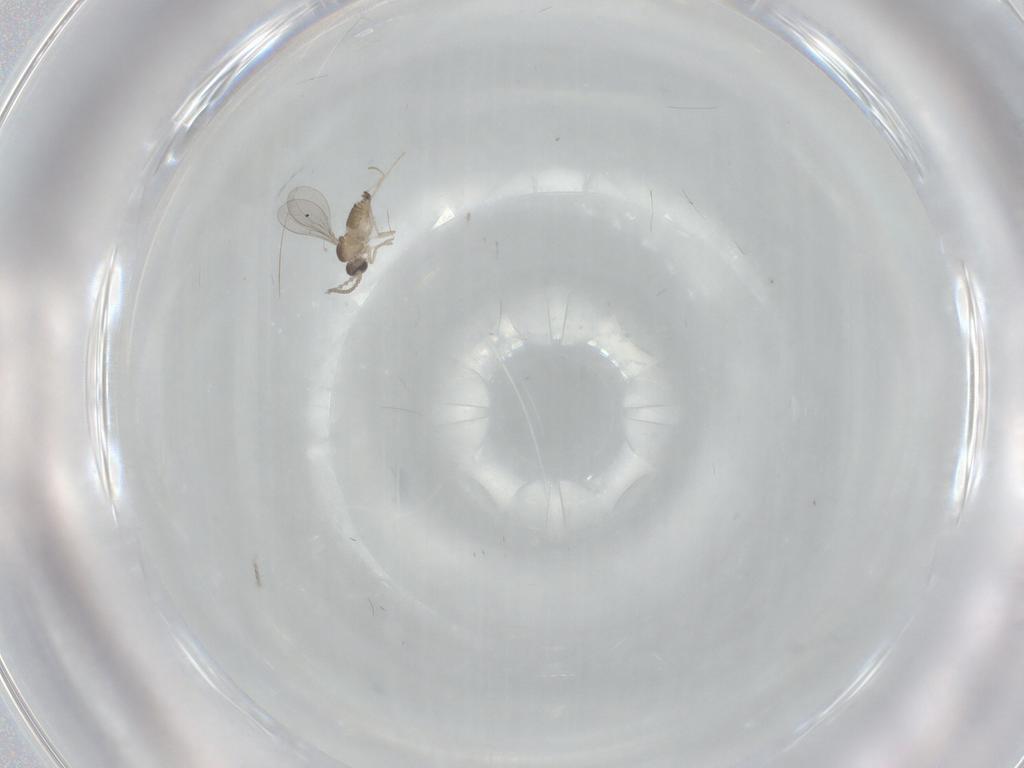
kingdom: Animalia
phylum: Arthropoda
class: Insecta
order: Diptera
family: Cecidomyiidae
